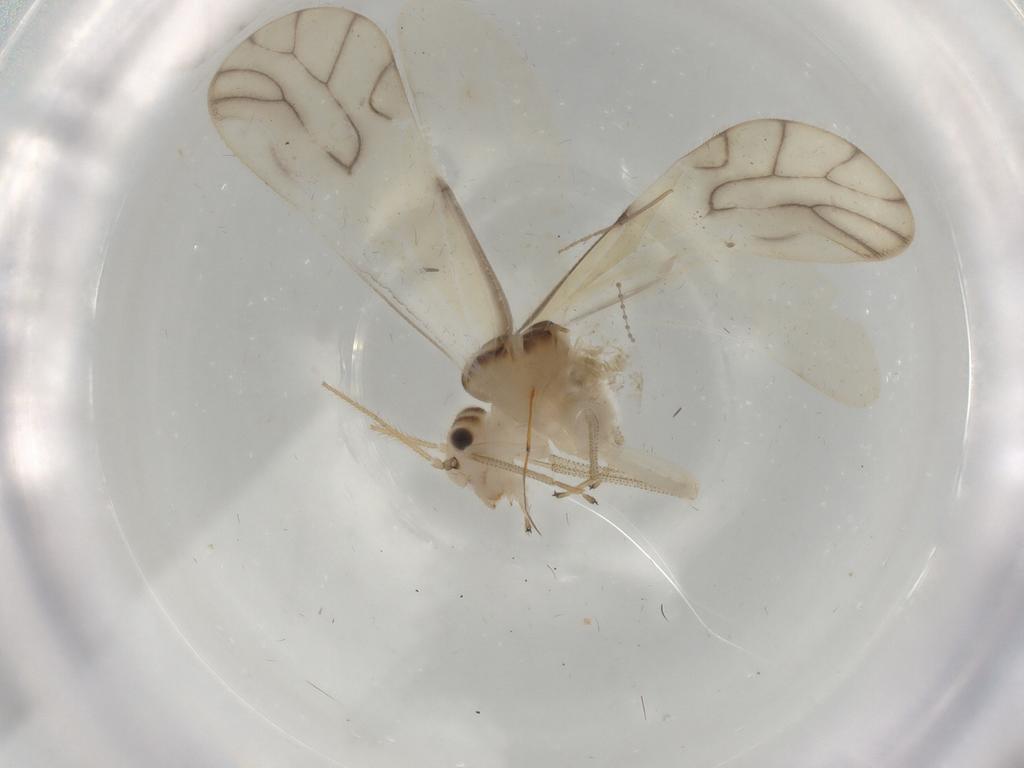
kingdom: Animalia
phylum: Arthropoda
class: Insecta
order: Psocodea
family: Caeciliusidae
